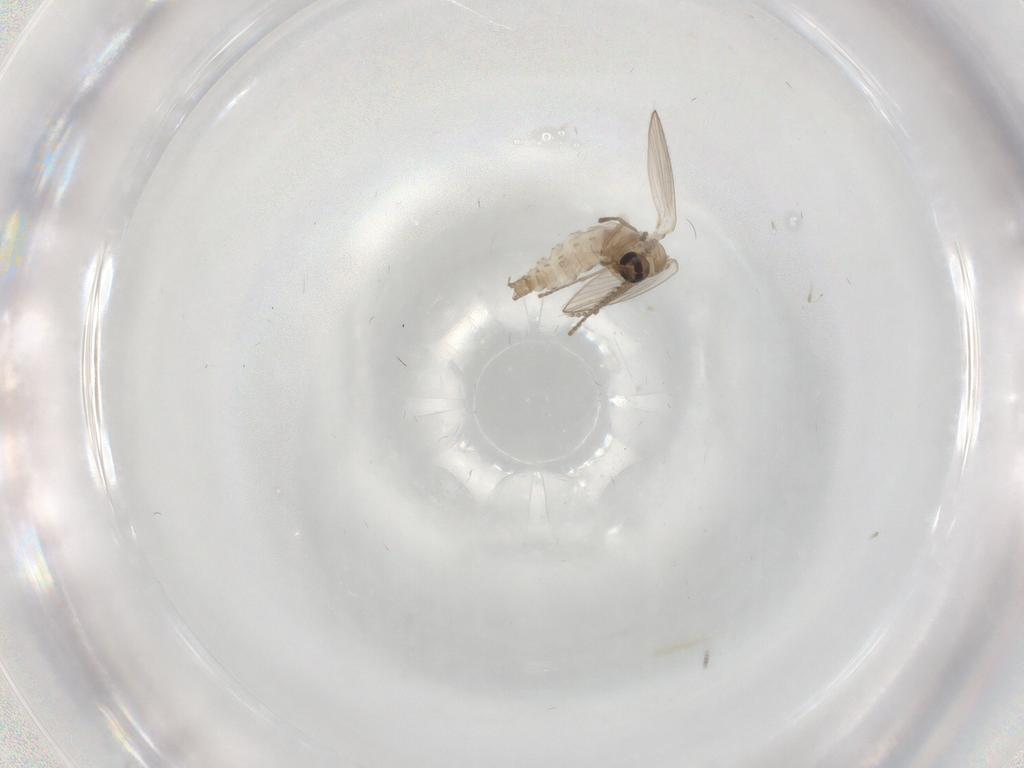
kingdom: Animalia
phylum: Arthropoda
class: Insecta
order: Diptera
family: Psychodidae
